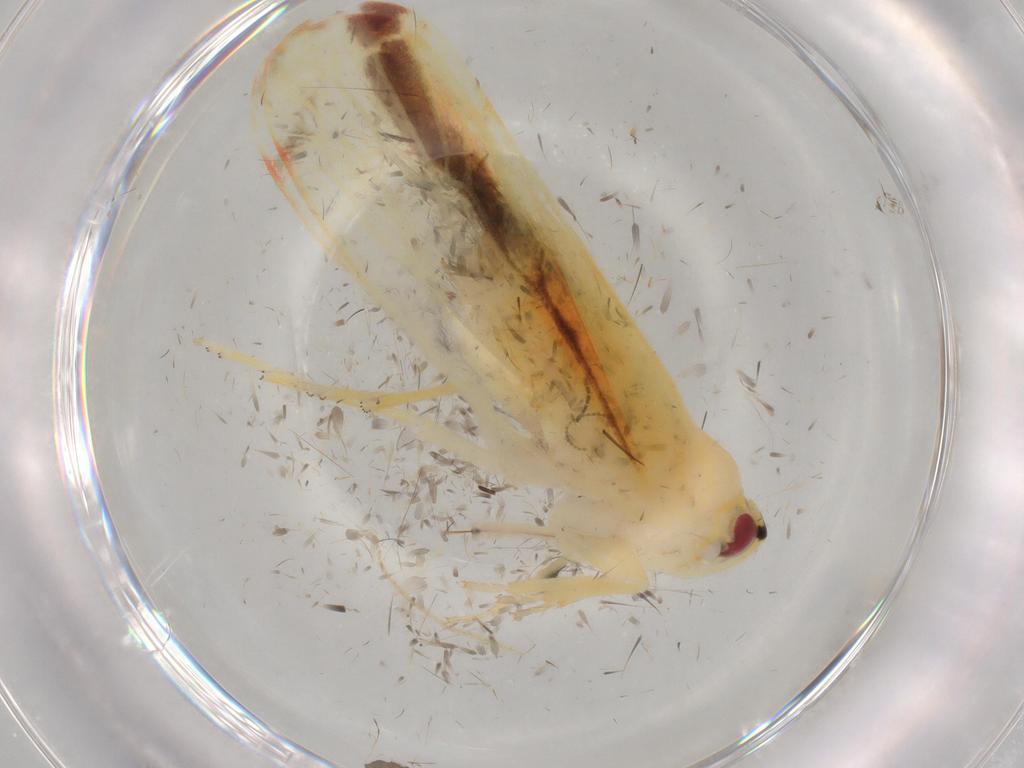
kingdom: Animalia
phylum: Arthropoda
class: Insecta
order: Hemiptera
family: Derbidae
